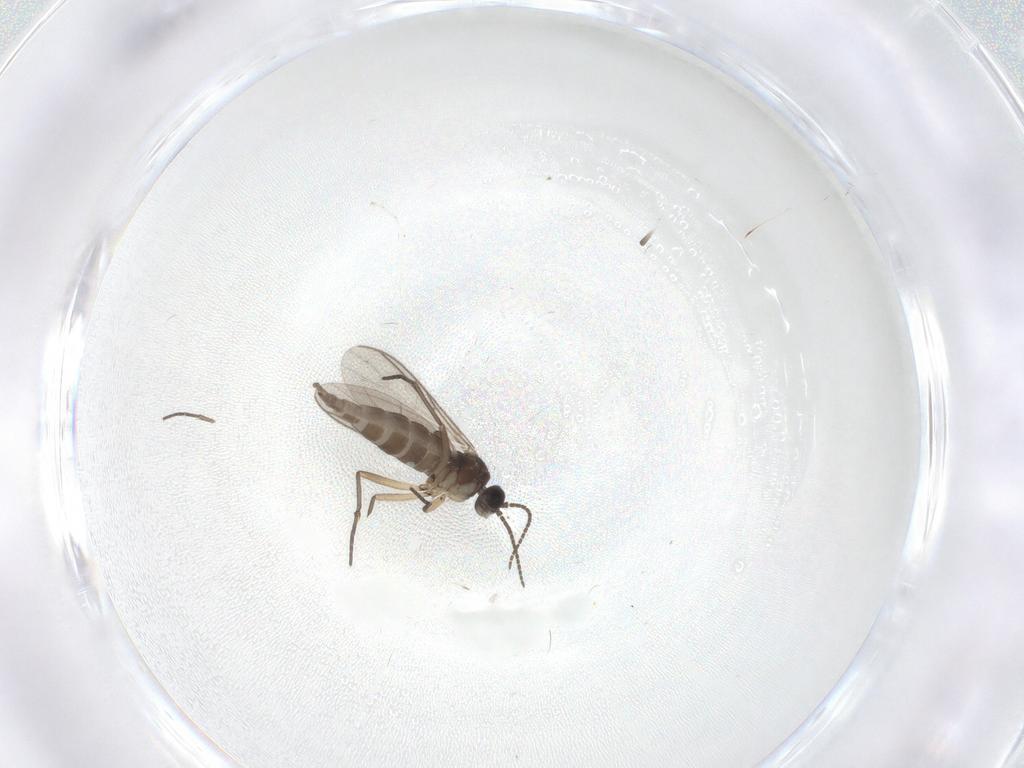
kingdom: Animalia
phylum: Arthropoda
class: Insecta
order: Diptera
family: Sciaridae
